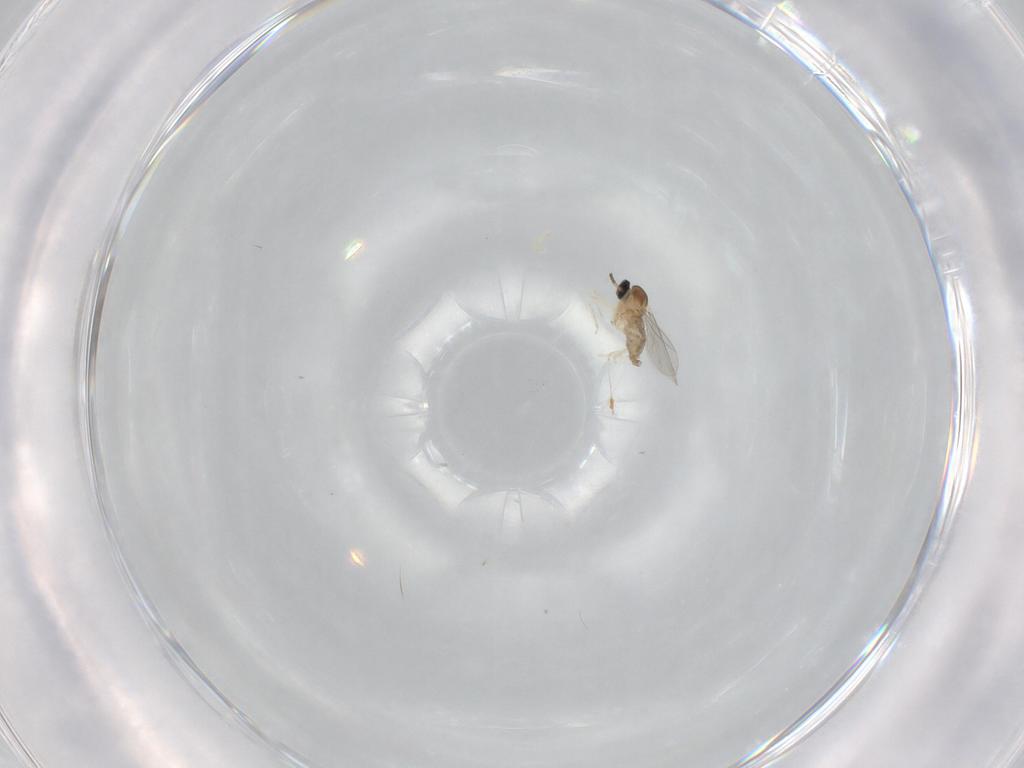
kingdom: Animalia
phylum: Arthropoda
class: Insecta
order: Diptera
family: Cecidomyiidae
